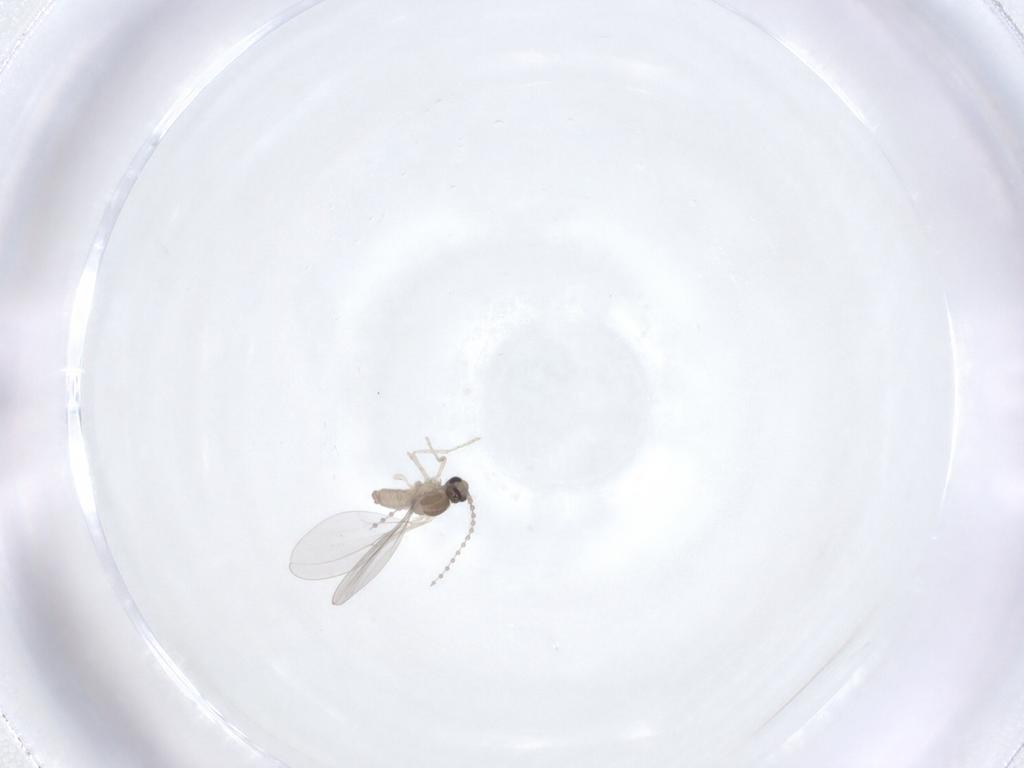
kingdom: Animalia
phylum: Arthropoda
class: Insecta
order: Diptera
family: Cecidomyiidae
